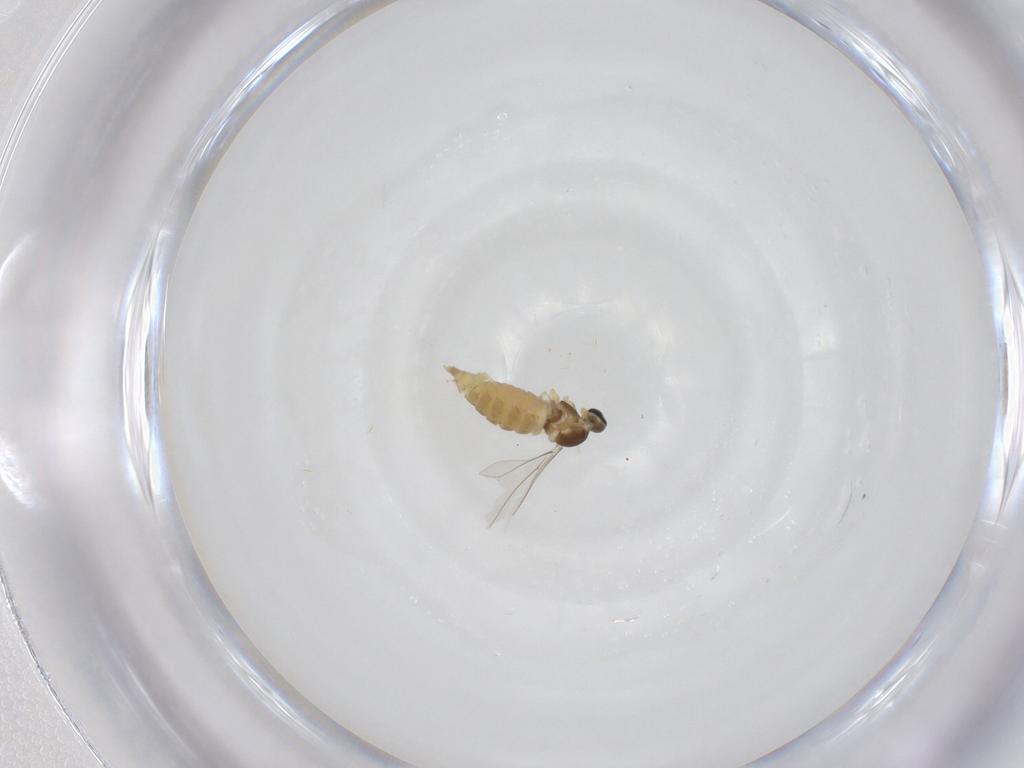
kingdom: Animalia
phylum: Arthropoda
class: Insecta
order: Diptera
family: Cecidomyiidae
